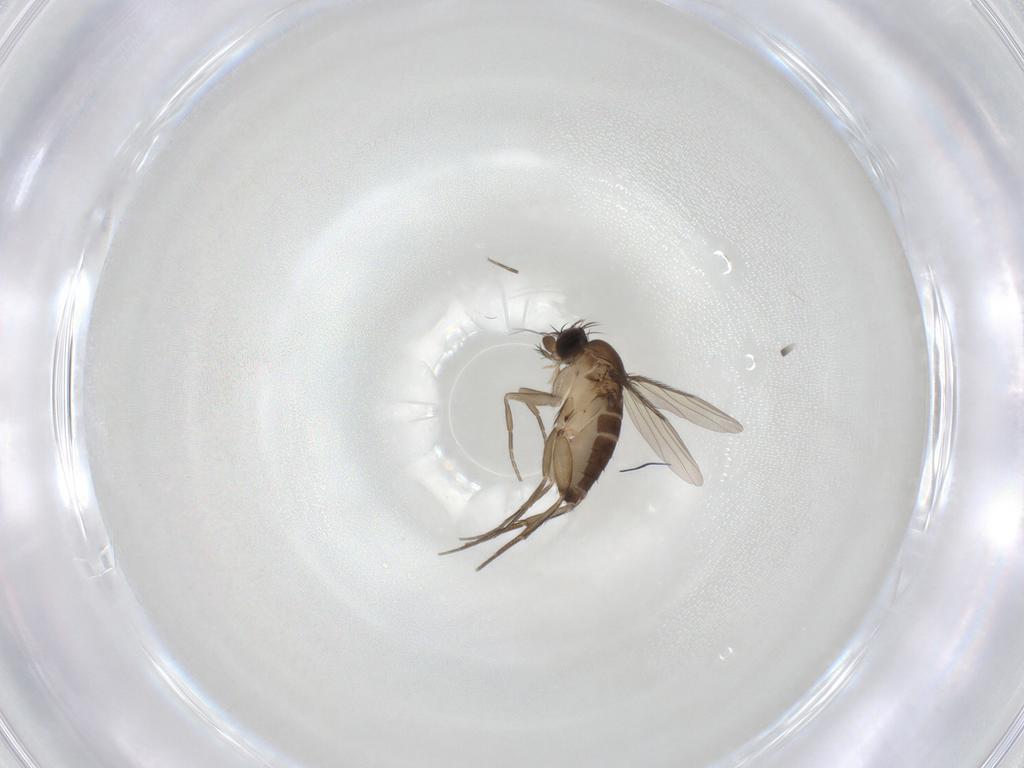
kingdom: Animalia
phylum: Arthropoda
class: Insecta
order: Diptera
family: Phoridae
